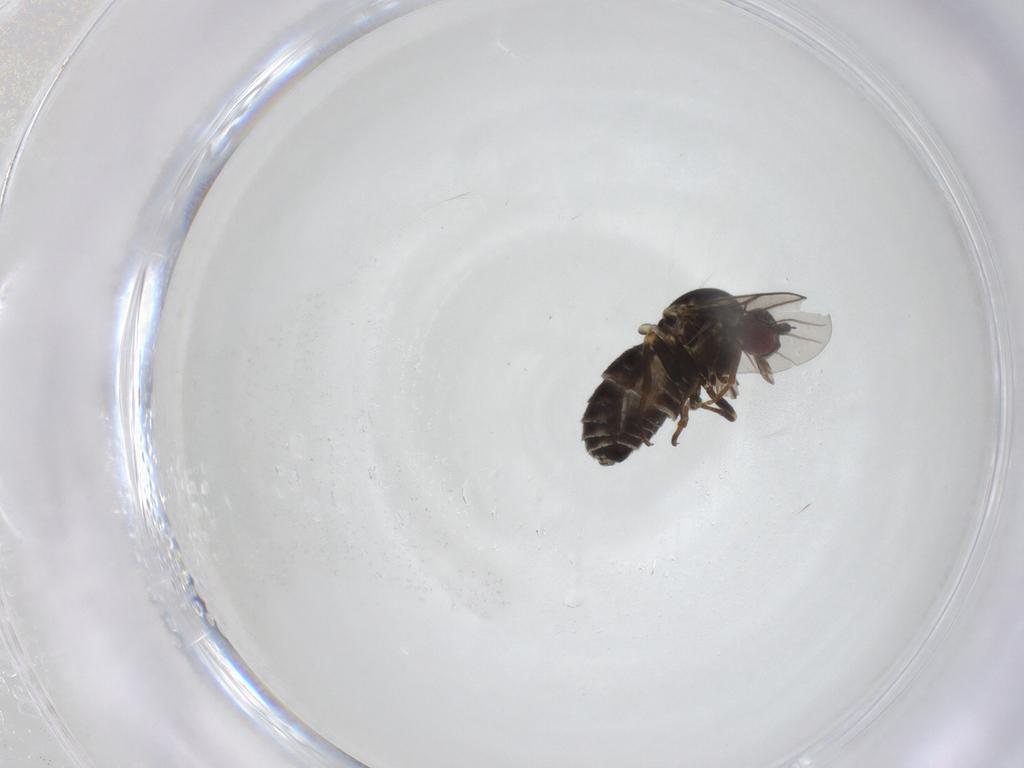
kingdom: Animalia
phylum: Arthropoda
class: Insecta
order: Diptera
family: Bombyliidae
